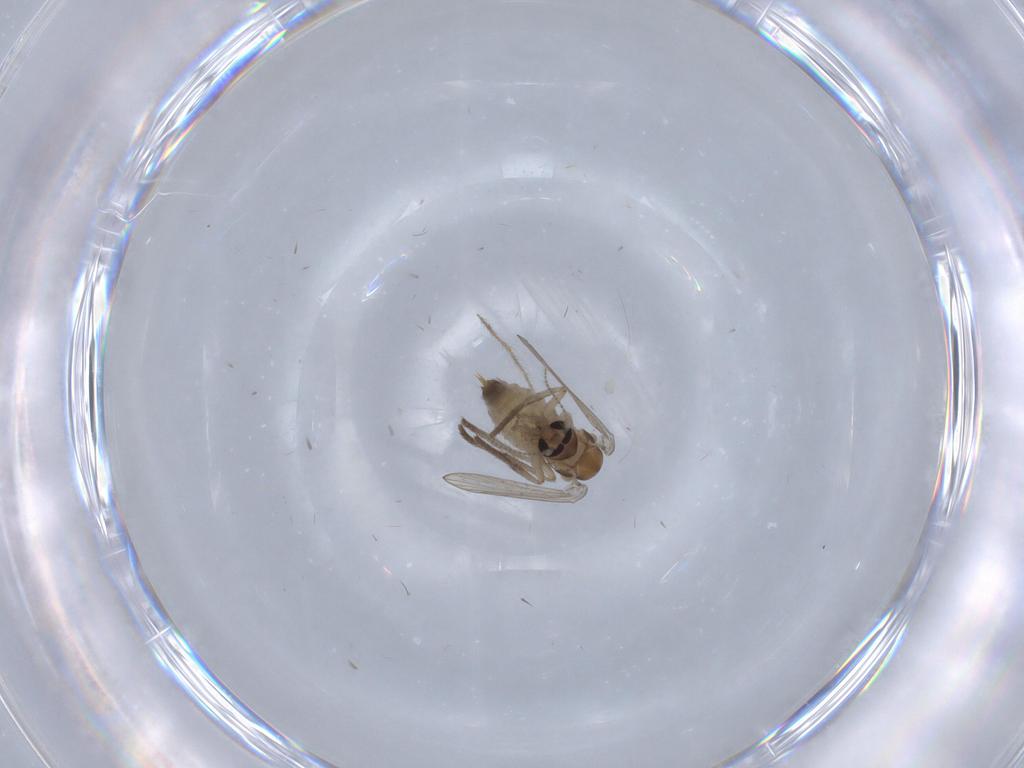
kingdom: Animalia
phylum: Arthropoda
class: Insecta
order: Diptera
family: Psychodidae
